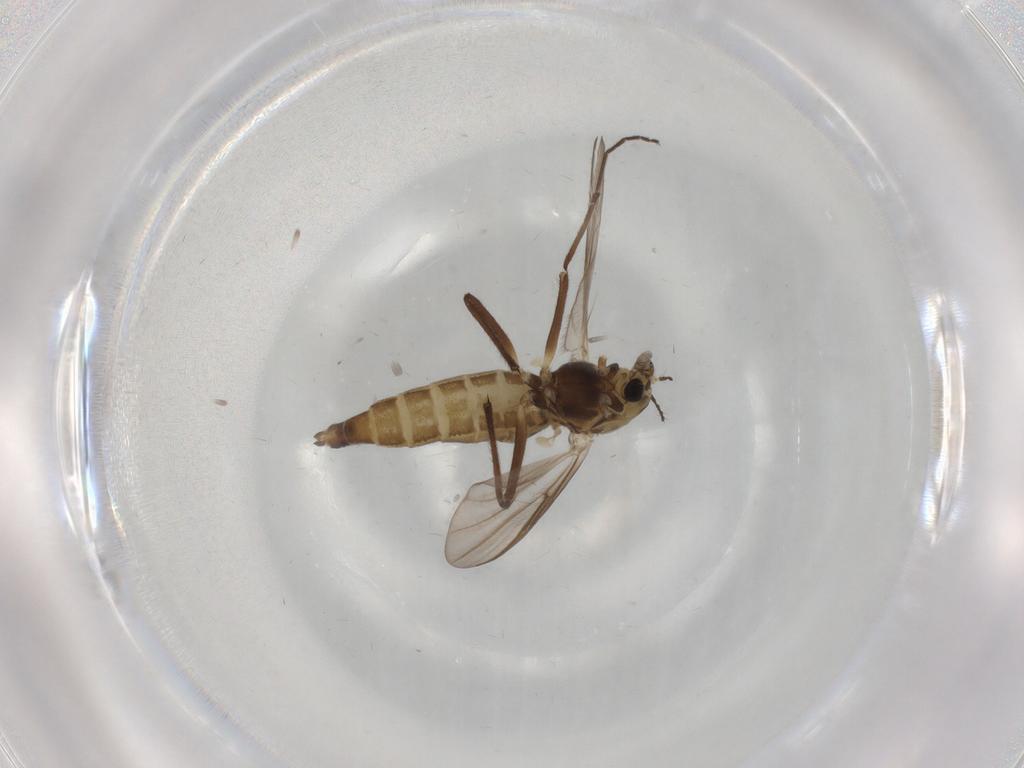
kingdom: Animalia
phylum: Arthropoda
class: Insecta
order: Diptera
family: Chironomidae
